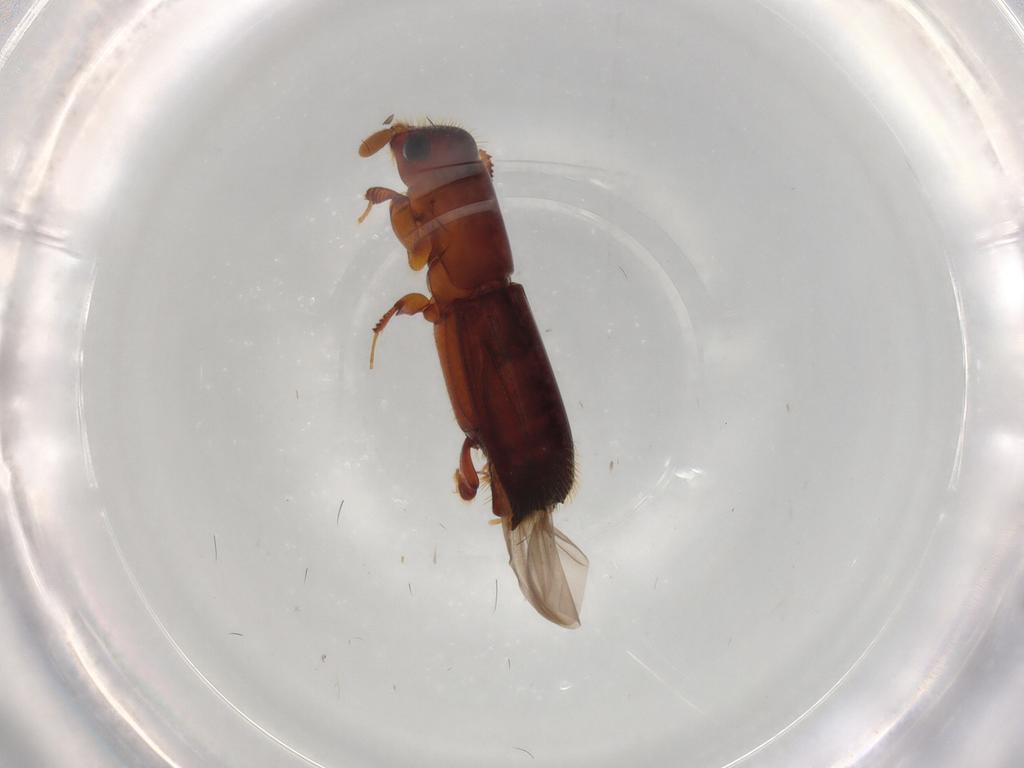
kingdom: Animalia
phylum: Arthropoda
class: Insecta
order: Coleoptera
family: Curculionidae
